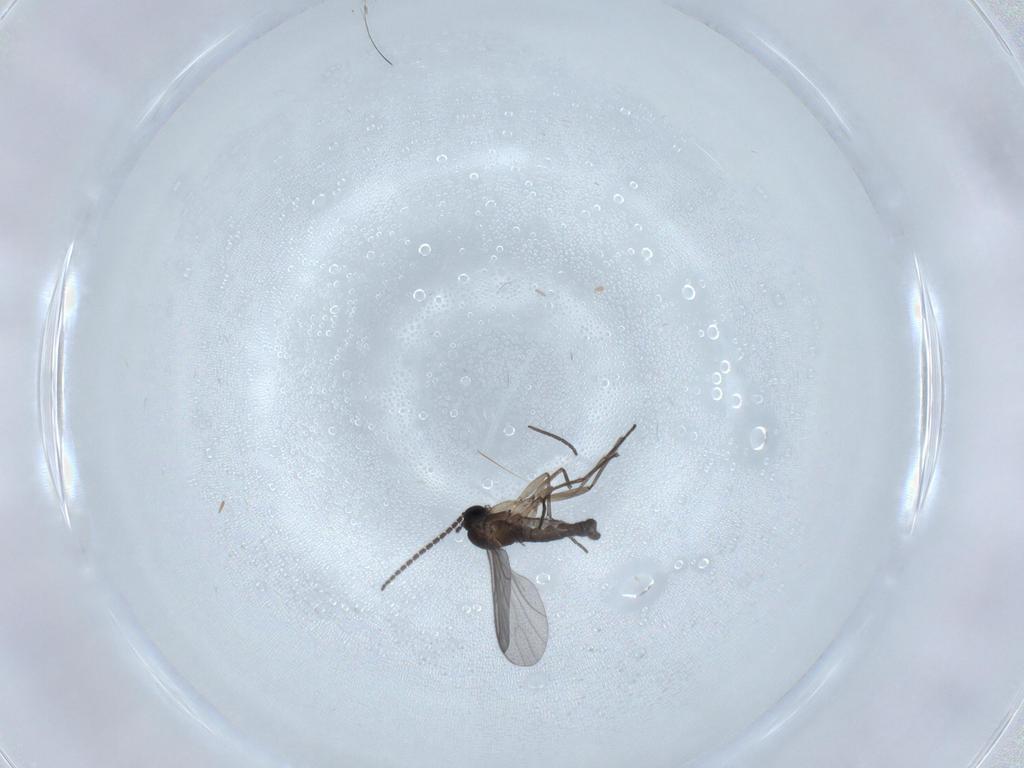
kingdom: Animalia
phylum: Arthropoda
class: Insecta
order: Diptera
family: Sciaridae
